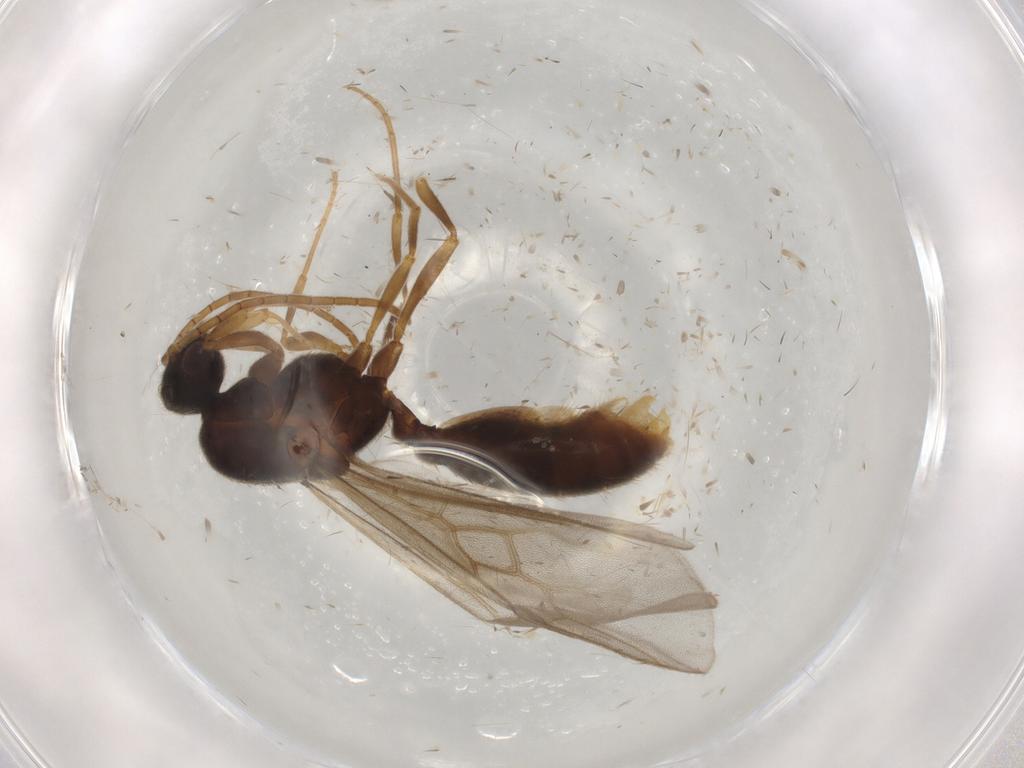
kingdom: Animalia
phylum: Arthropoda
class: Insecta
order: Hymenoptera
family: Formicidae
